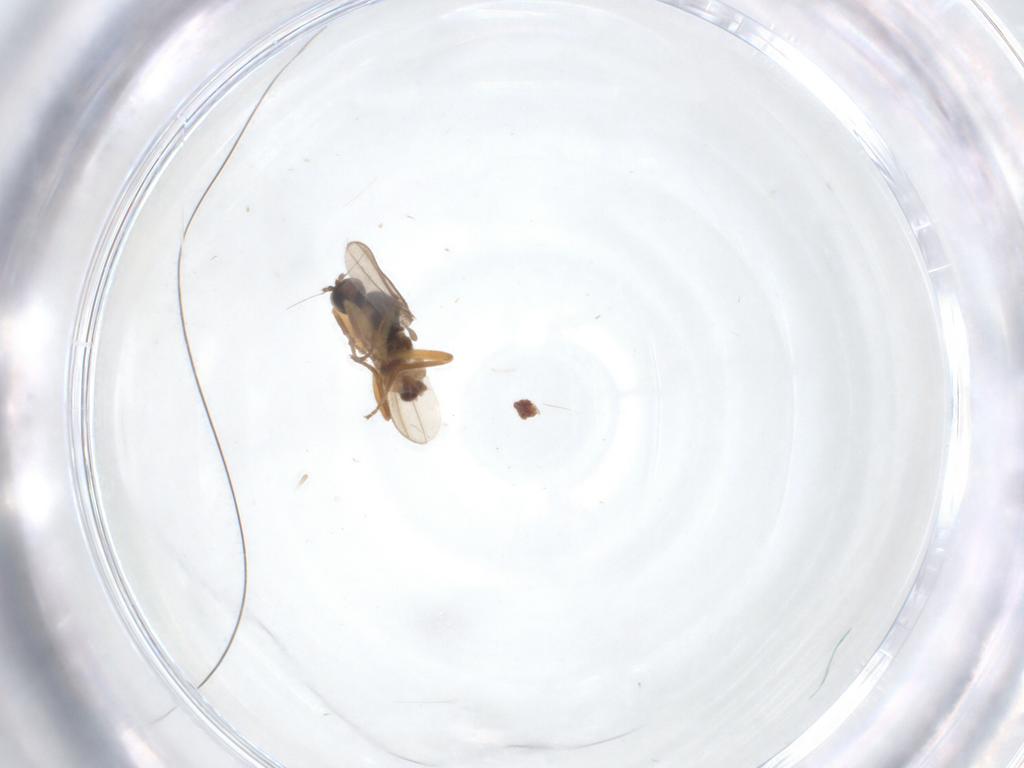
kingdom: Animalia
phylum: Arthropoda
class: Insecta
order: Diptera
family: Hybotidae
